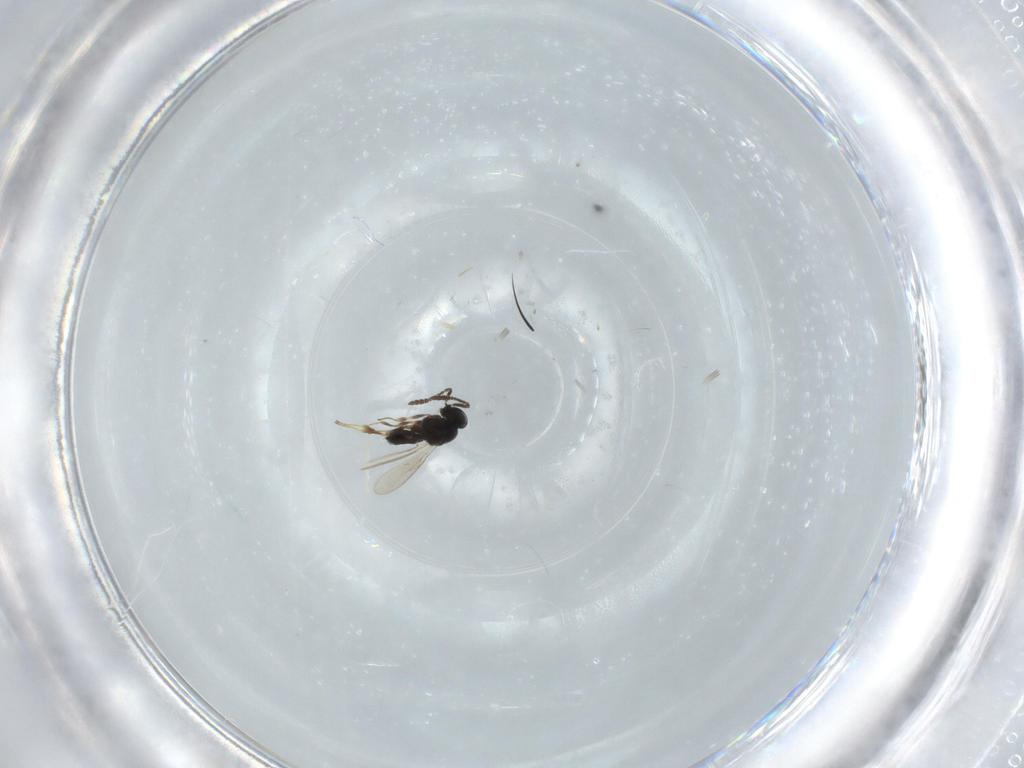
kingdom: Animalia
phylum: Arthropoda
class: Insecta
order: Hymenoptera
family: Scelionidae
